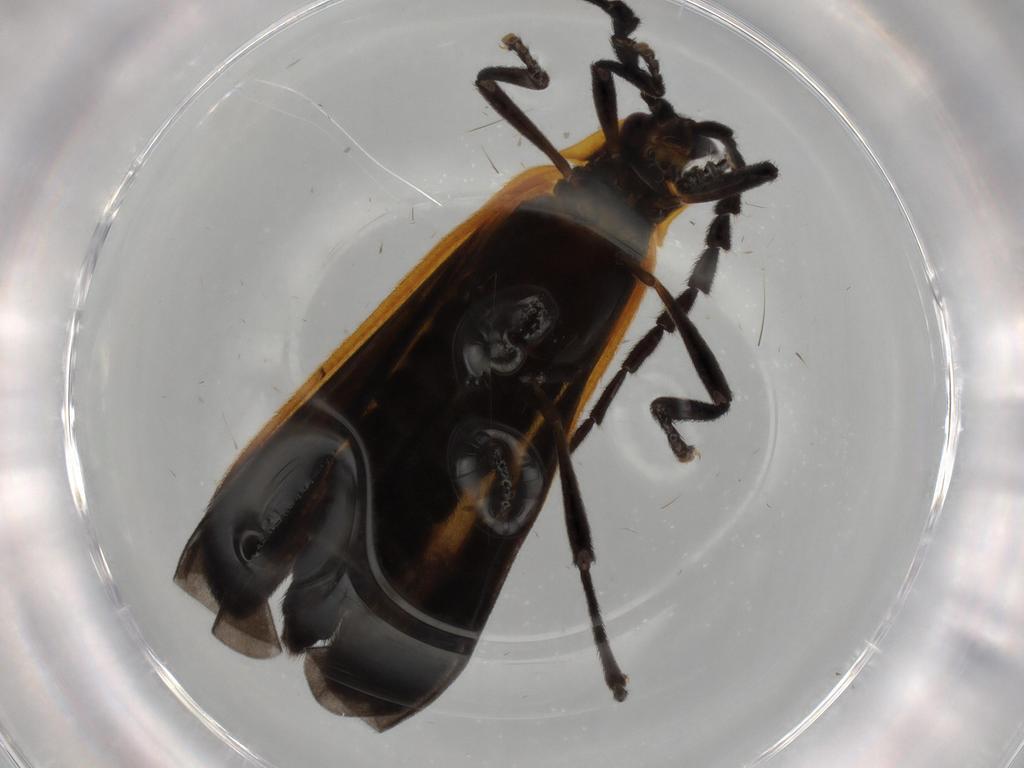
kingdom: Animalia
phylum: Arthropoda
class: Insecta
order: Coleoptera
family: Lycidae
